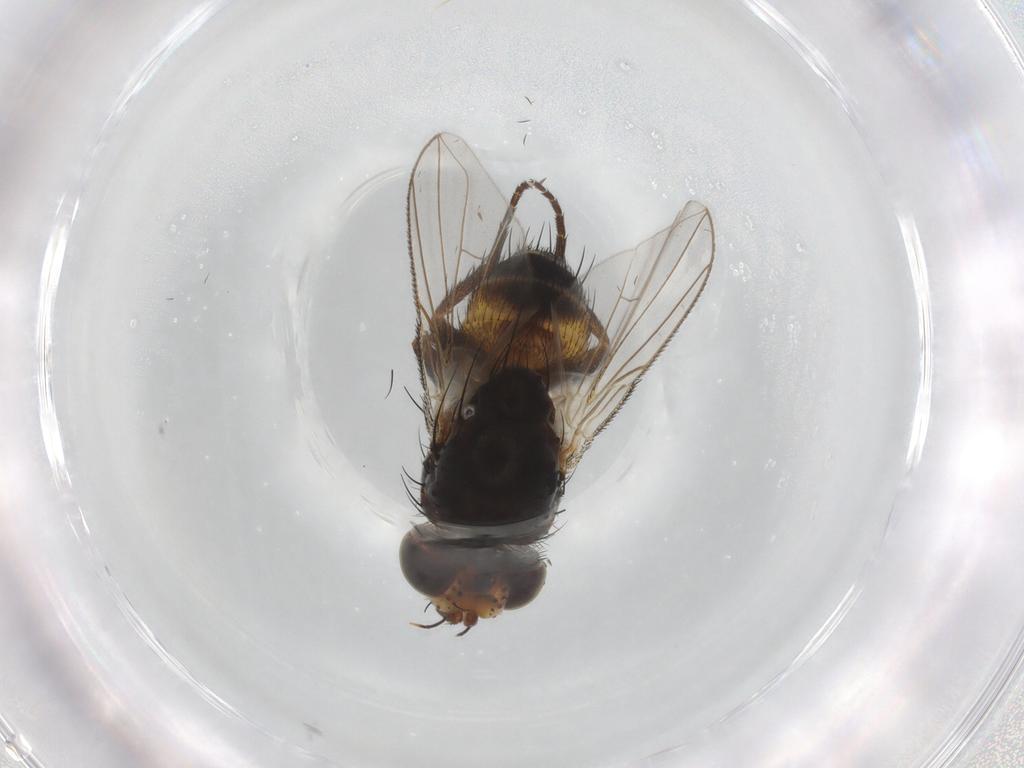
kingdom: Animalia
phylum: Arthropoda
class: Insecta
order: Diptera
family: Tachinidae
